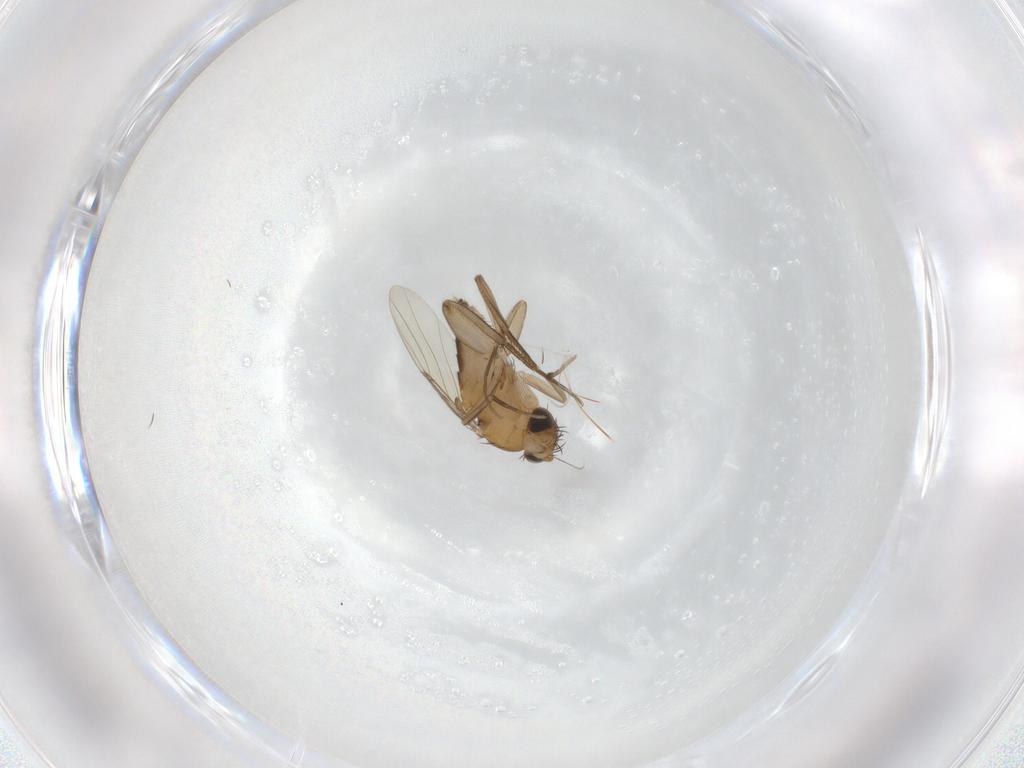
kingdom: Animalia
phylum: Arthropoda
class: Insecta
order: Diptera
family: Phoridae
